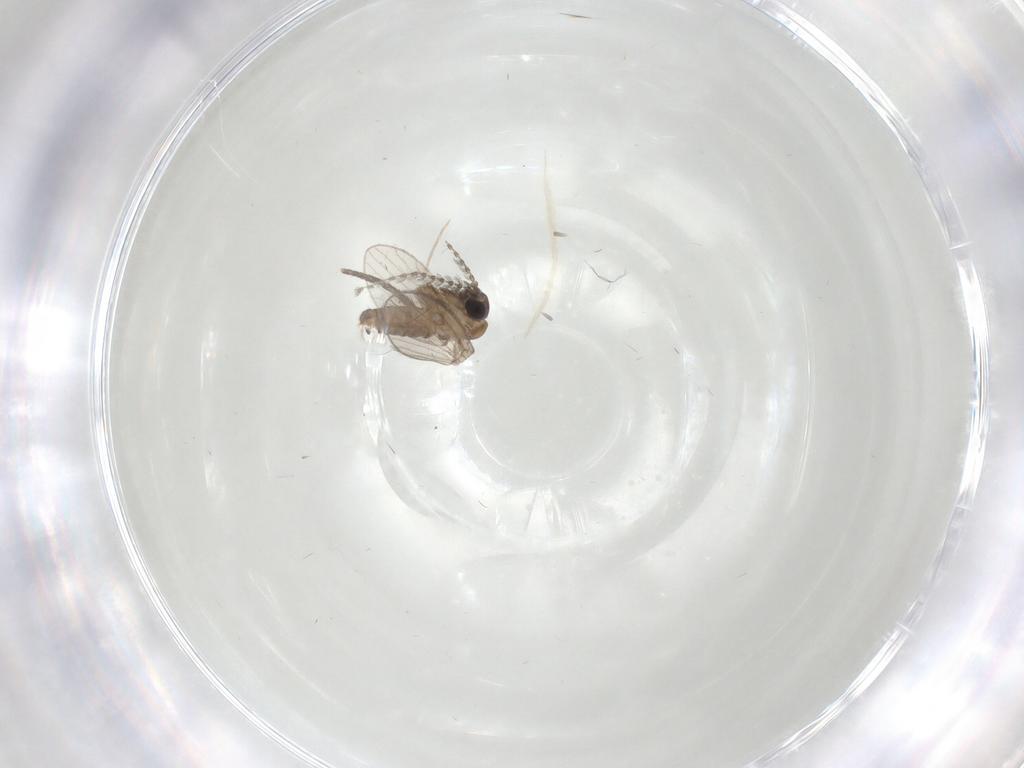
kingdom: Animalia
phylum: Arthropoda
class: Insecta
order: Diptera
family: Psychodidae
